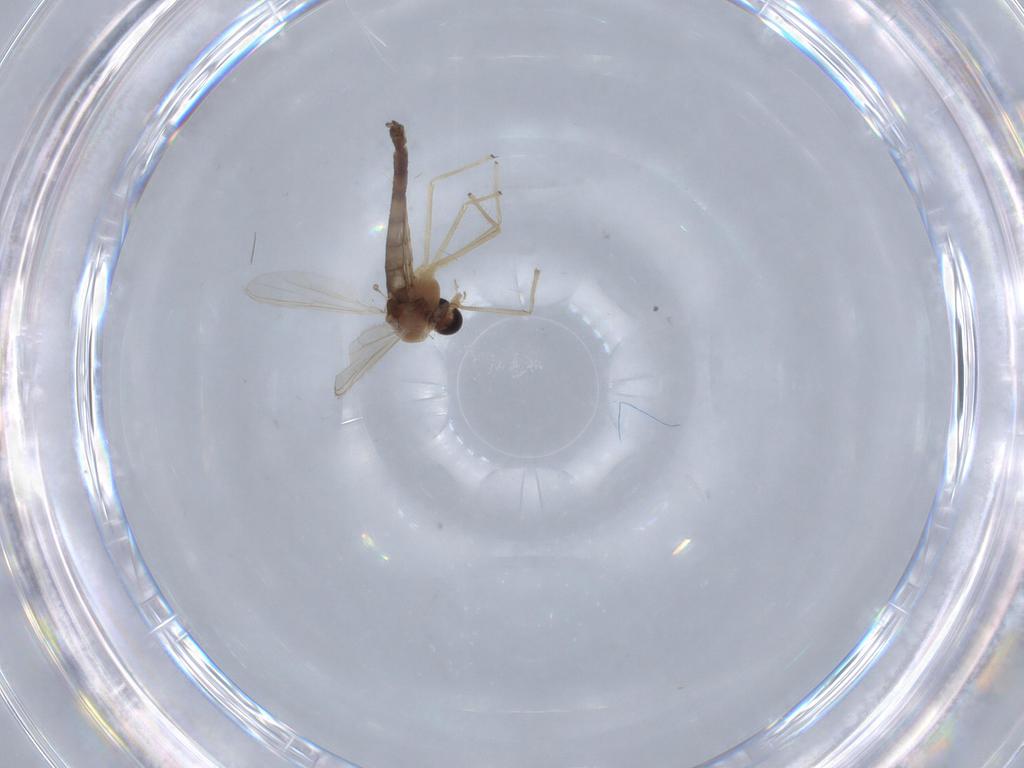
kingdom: Animalia
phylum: Arthropoda
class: Insecta
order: Diptera
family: Chironomidae
